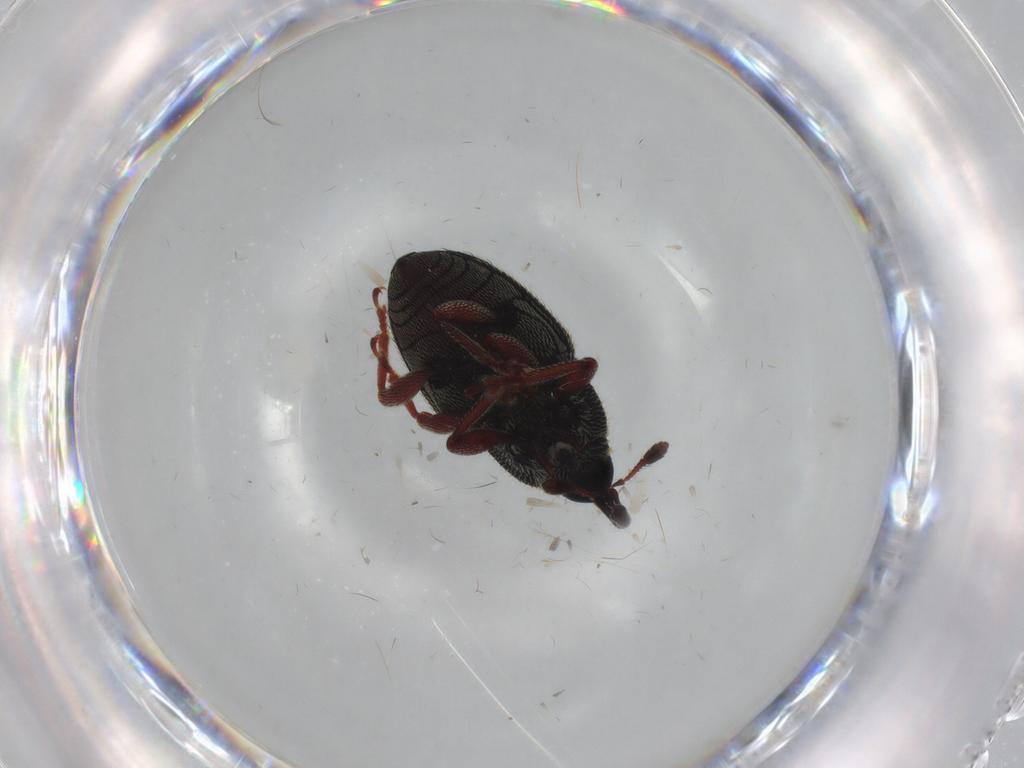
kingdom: Animalia
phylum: Arthropoda
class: Insecta
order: Coleoptera
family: Curculionidae
